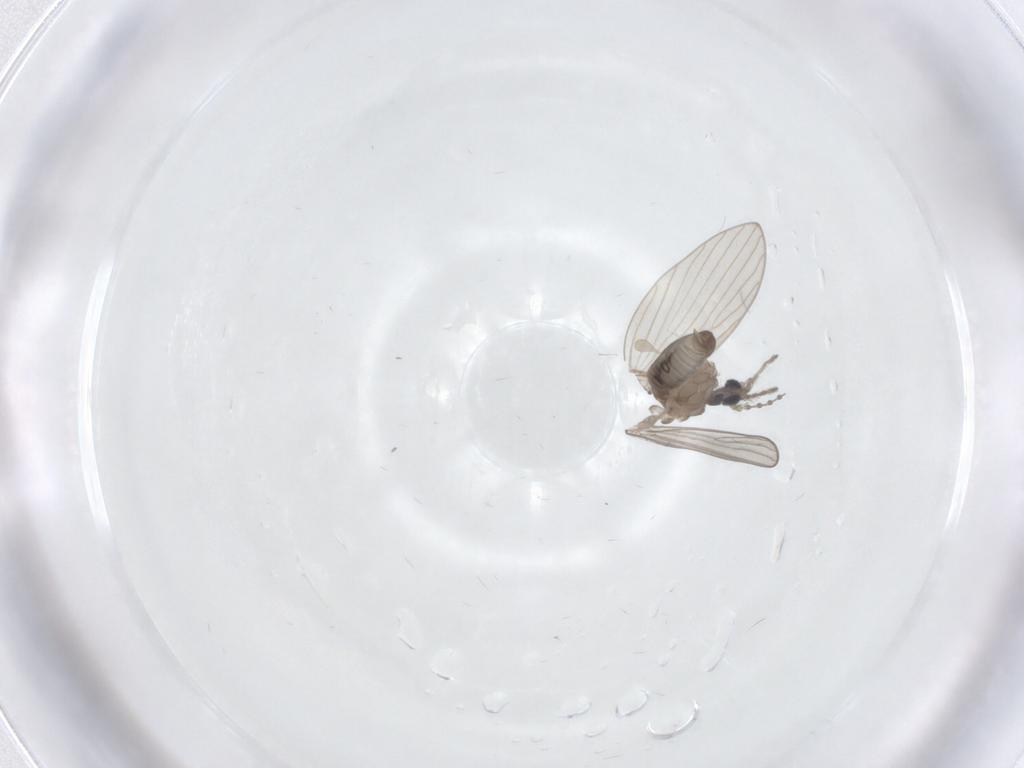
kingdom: Animalia
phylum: Arthropoda
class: Insecta
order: Diptera
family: Psychodidae
